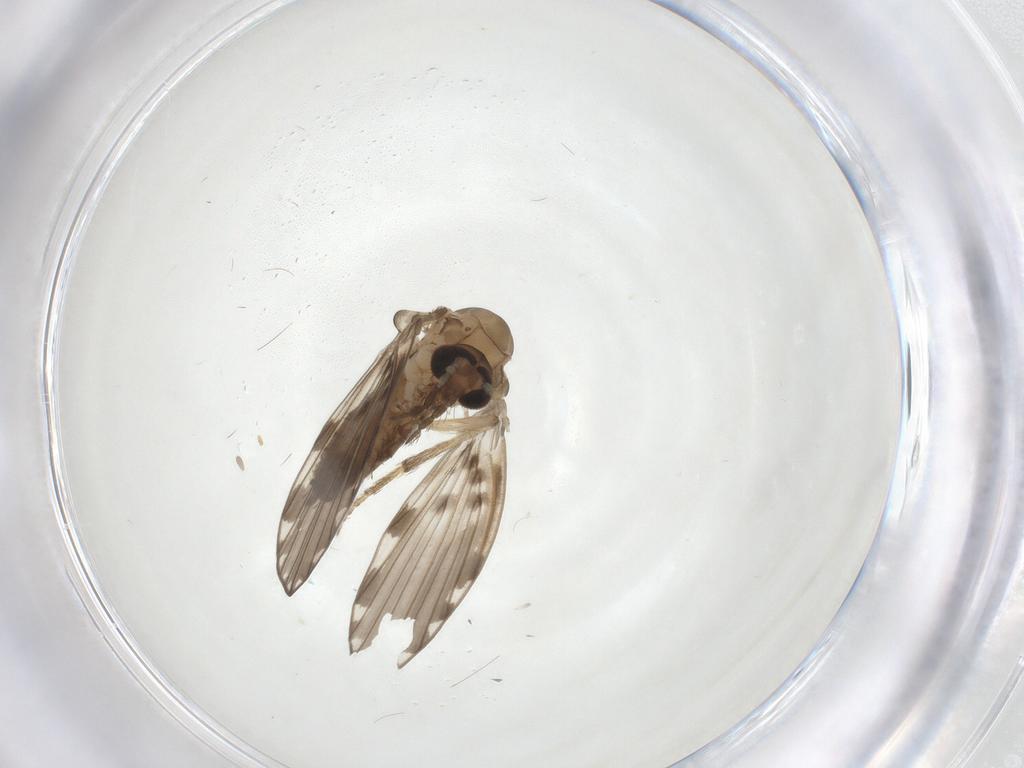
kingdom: Animalia
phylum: Arthropoda
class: Insecta
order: Diptera
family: Psychodidae
